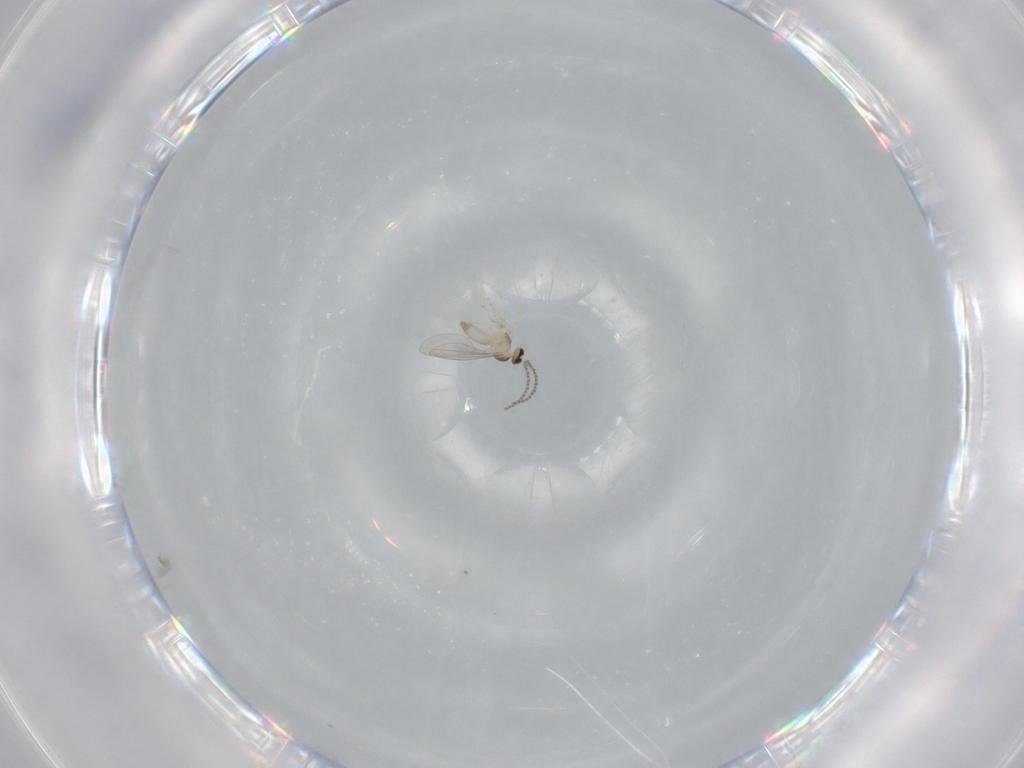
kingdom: Animalia
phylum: Arthropoda
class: Insecta
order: Diptera
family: Cecidomyiidae
